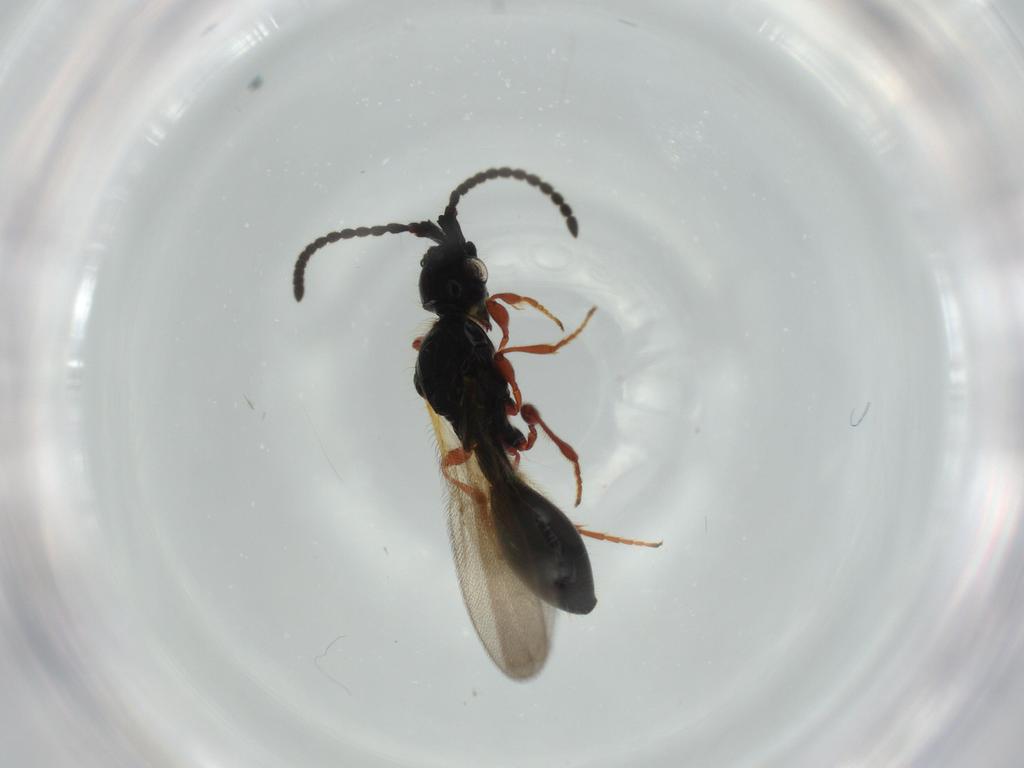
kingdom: Animalia
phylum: Arthropoda
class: Insecta
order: Hymenoptera
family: Diapriidae
